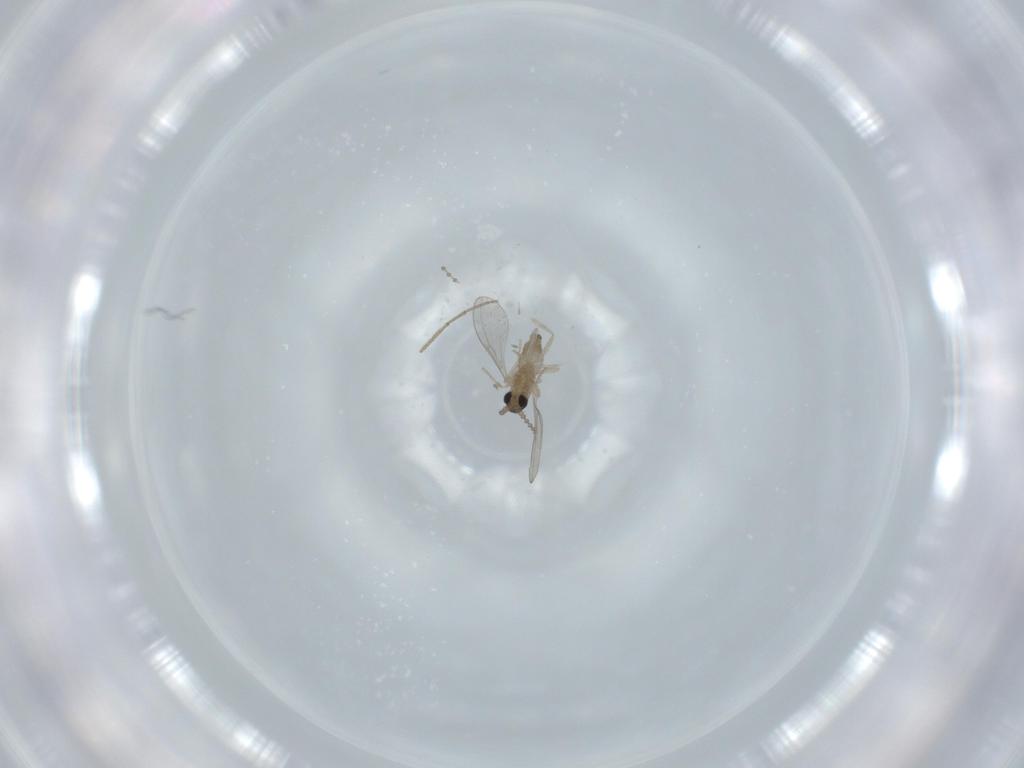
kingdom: Animalia
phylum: Arthropoda
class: Insecta
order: Diptera
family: Chironomidae
